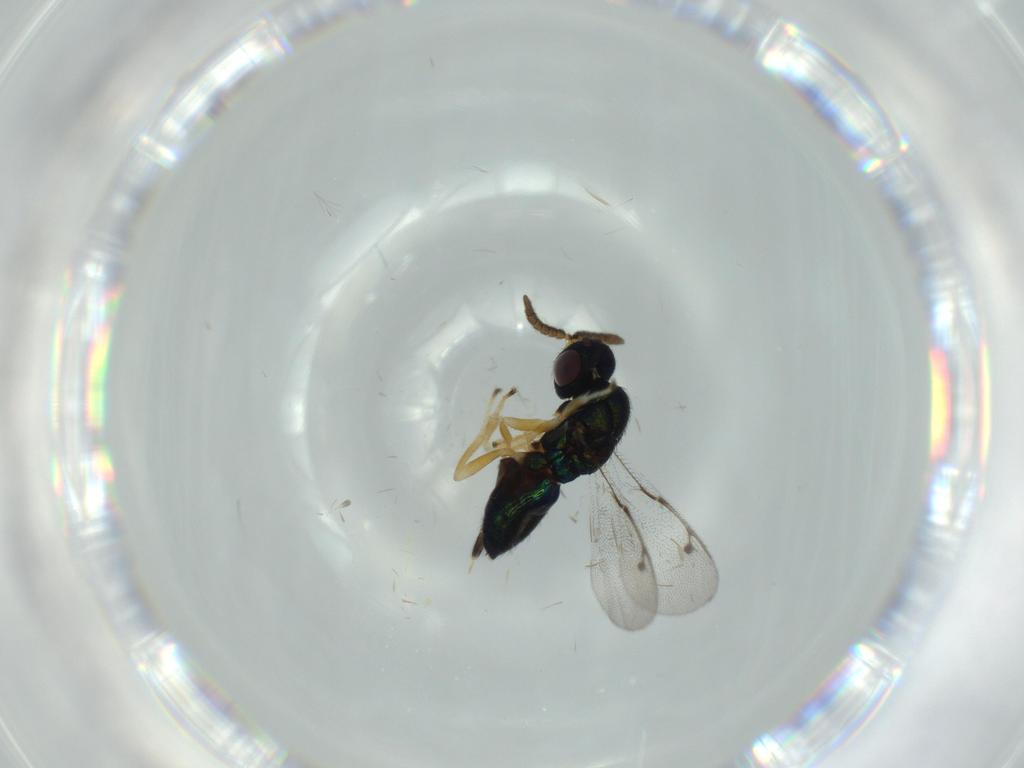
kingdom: Animalia
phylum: Arthropoda
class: Insecta
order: Hymenoptera
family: Pirenidae
